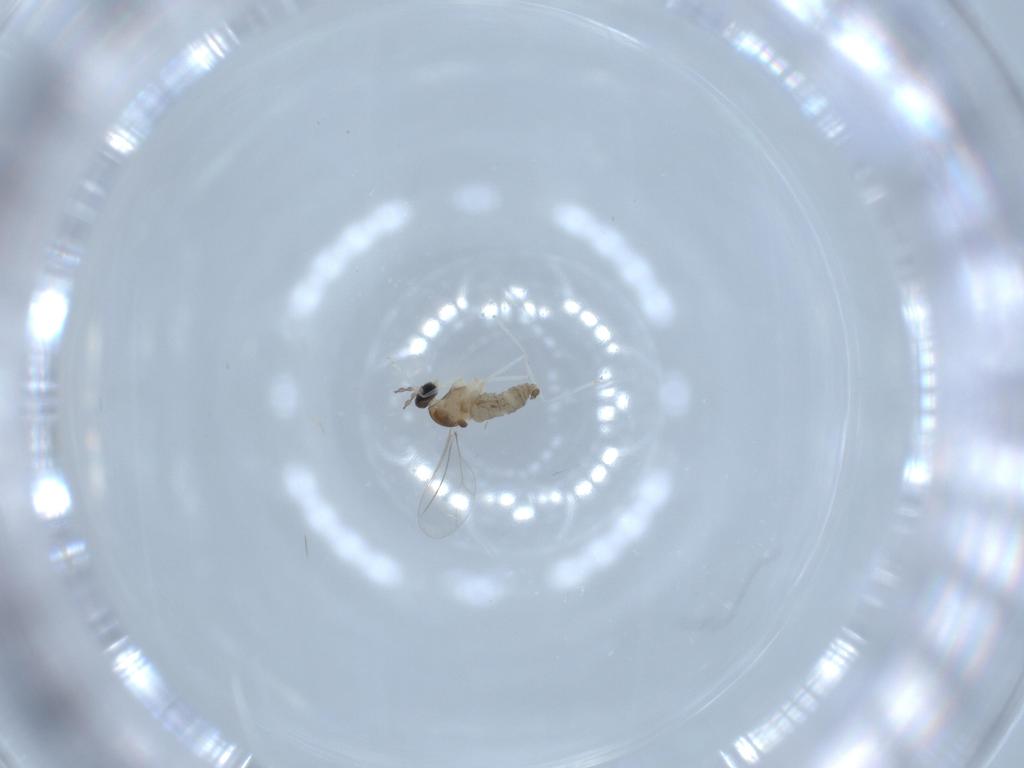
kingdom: Animalia
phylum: Arthropoda
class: Insecta
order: Diptera
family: Cecidomyiidae
